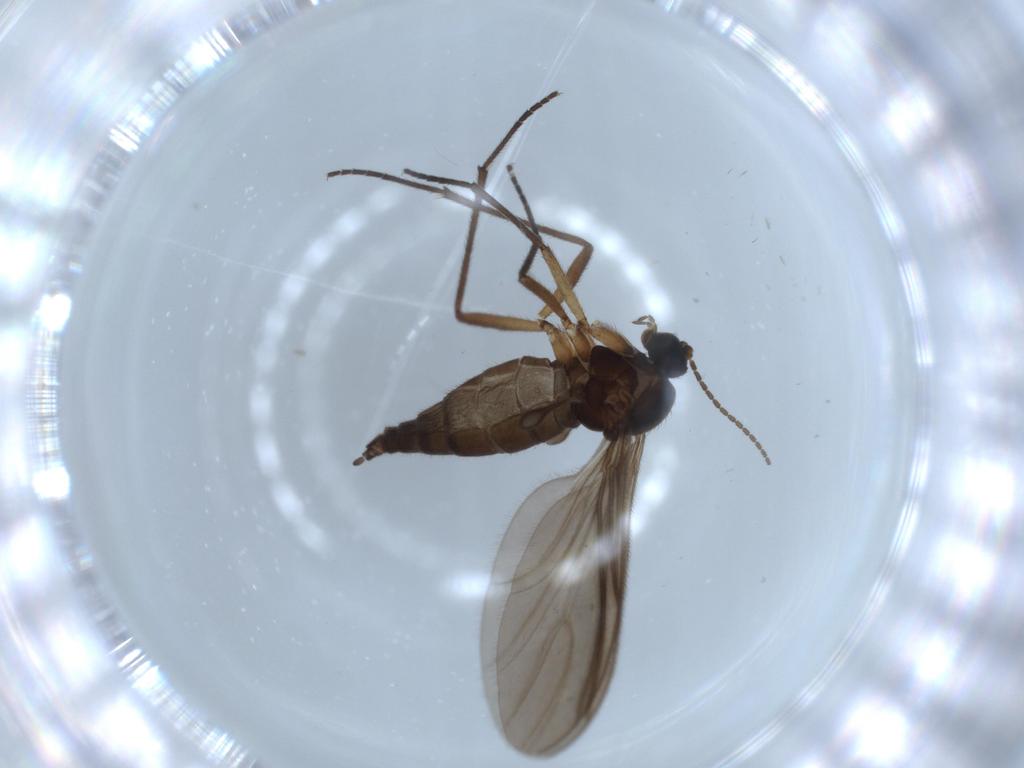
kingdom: Animalia
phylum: Arthropoda
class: Insecta
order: Diptera
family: Sciaridae
